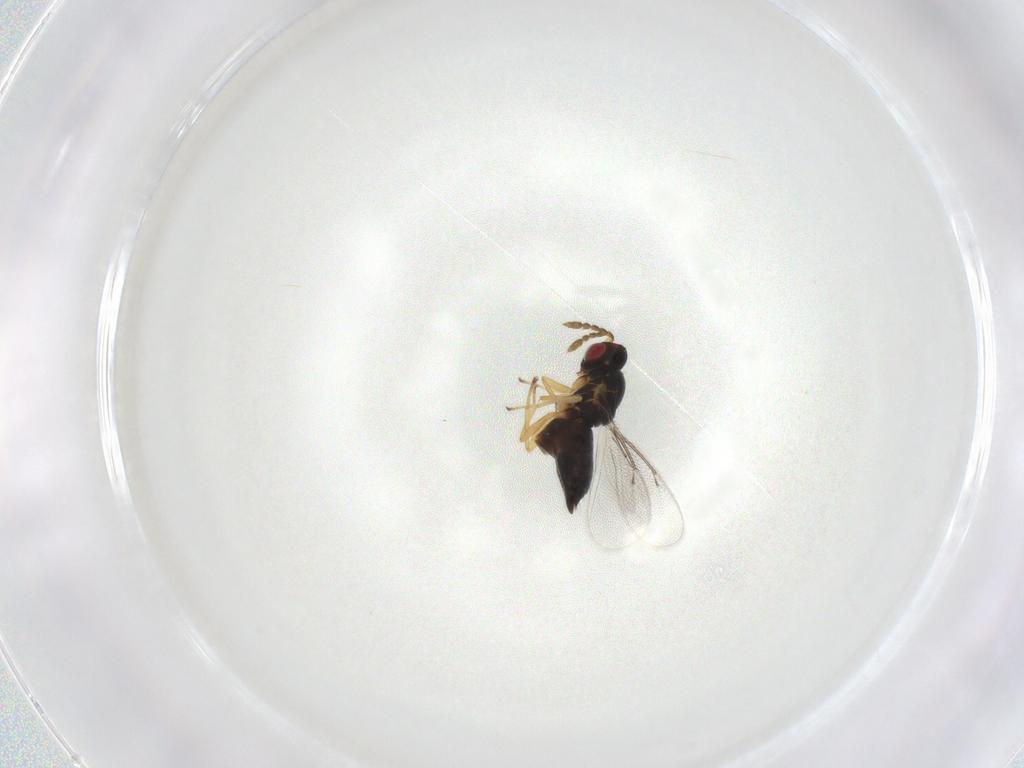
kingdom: Animalia
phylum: Arthropoda
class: Insecta
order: Hymenoptera
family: Eulophidae
